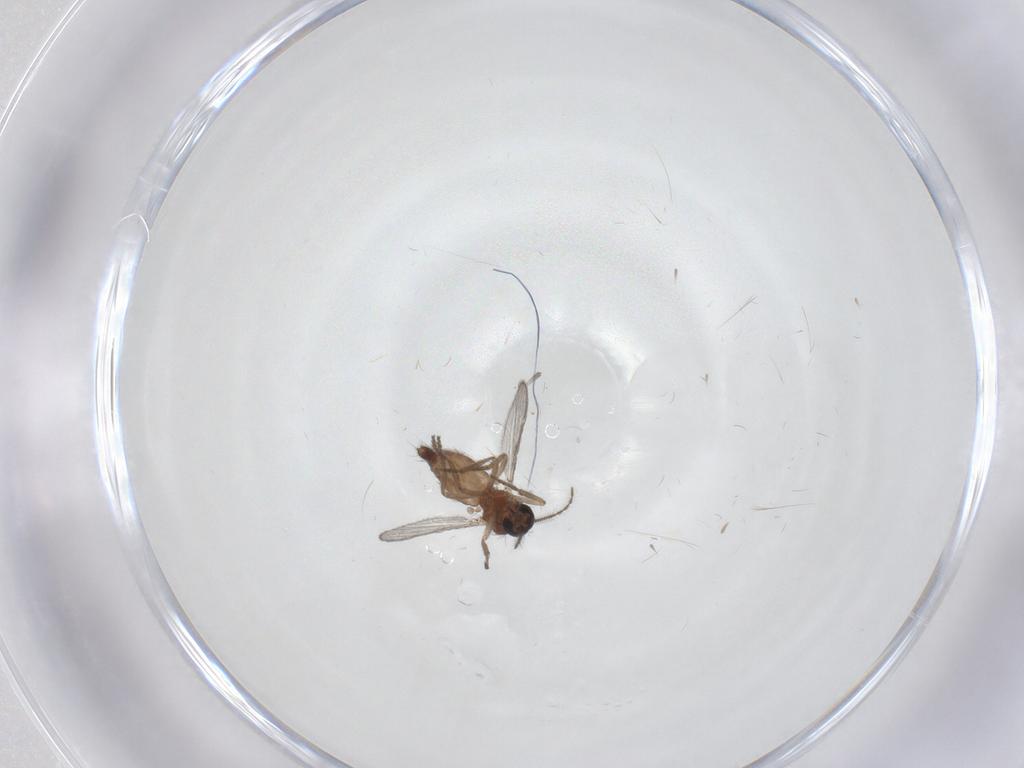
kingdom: Animalia
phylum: Arthropoda
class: Insecta
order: Diptera
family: Ceratopogonidae
